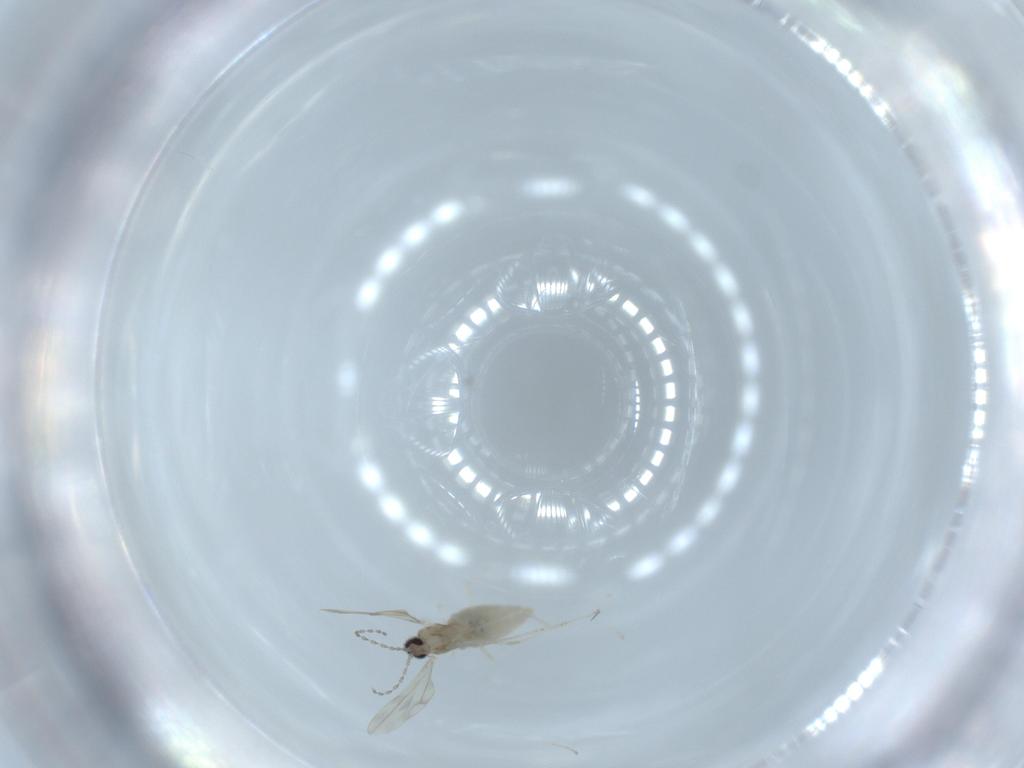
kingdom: Animalia
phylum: Arthropoda
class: Insecta
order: Diptera
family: Cecidomyiidae
